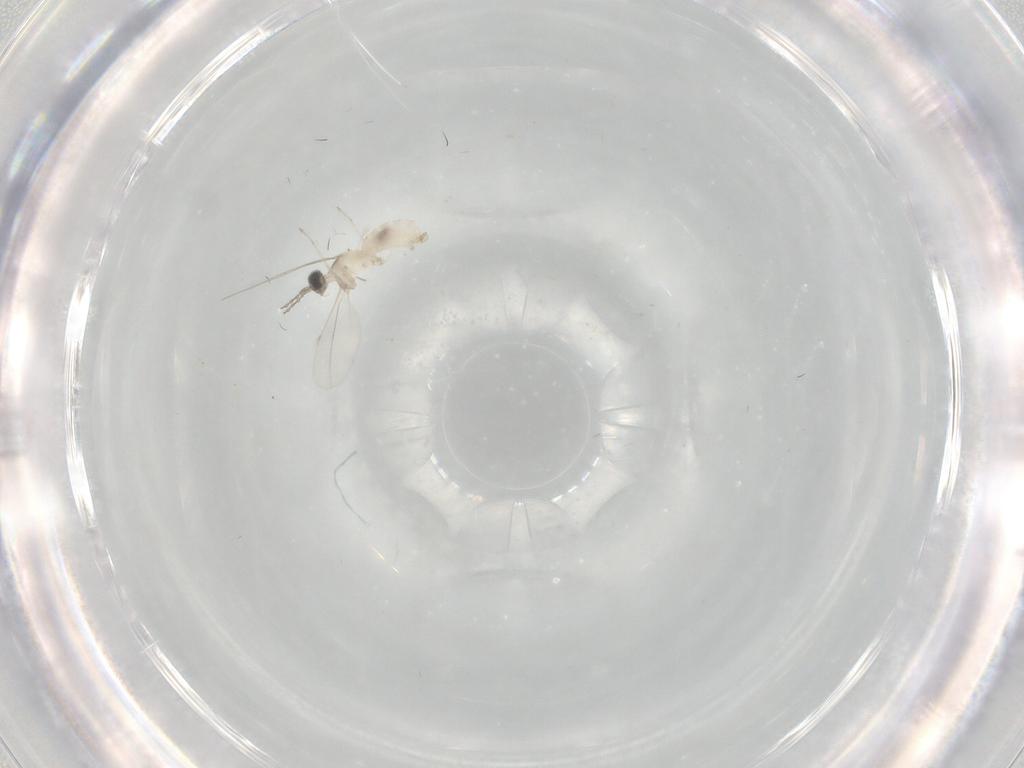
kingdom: Animalia
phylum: Arthropoda
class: Insecta
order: Diptera
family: Cecidomyiidae
